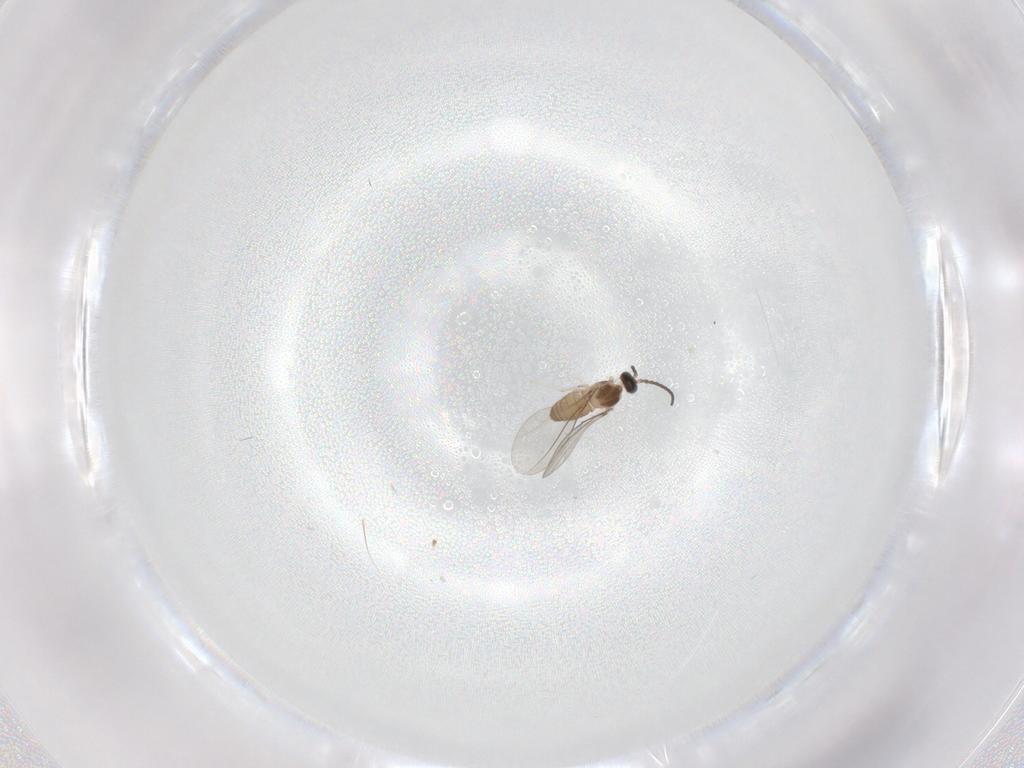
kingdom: Animalia
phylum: Arthropoda
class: Insecta
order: Diptera
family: Cecidomyiidae
